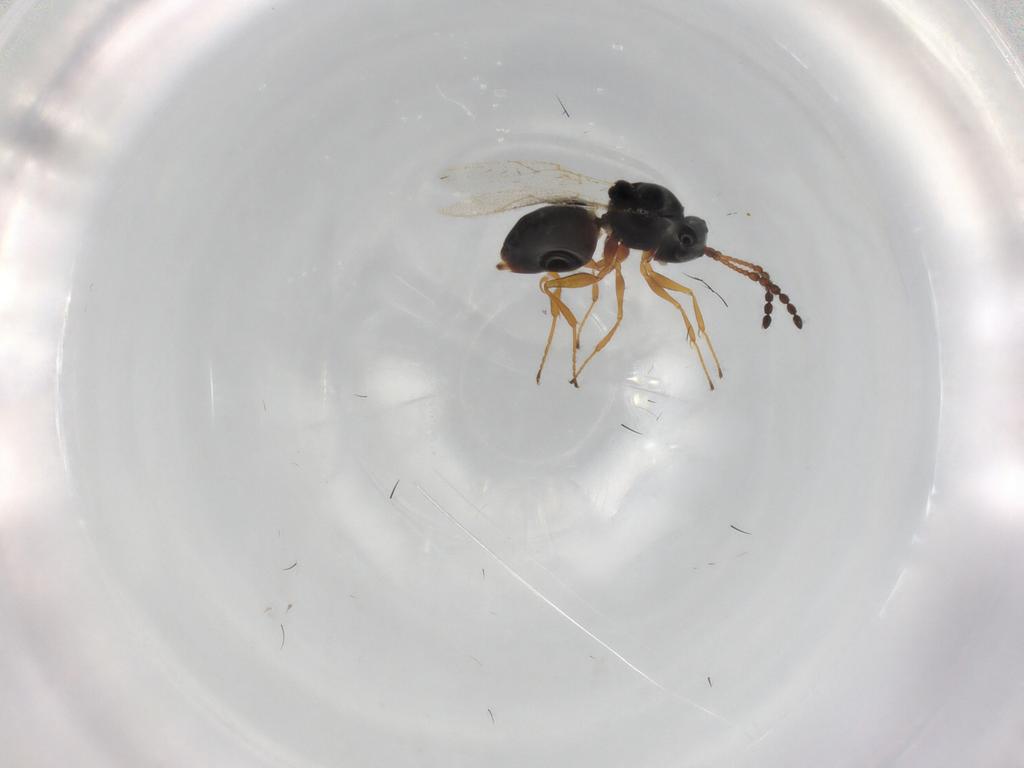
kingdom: Animalia
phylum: Arthropoda
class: Insecta
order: Hymenoptera
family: Figitidae
